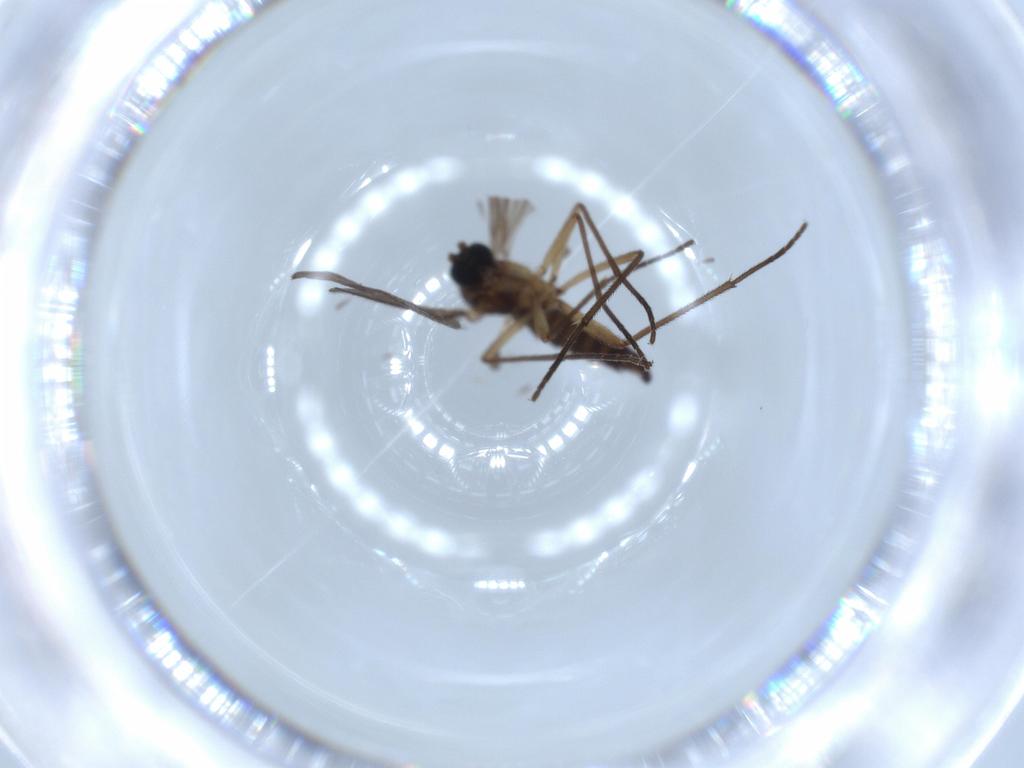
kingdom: Animalia
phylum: Arthropoda
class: Insecta
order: Diptera
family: Sciaridae
